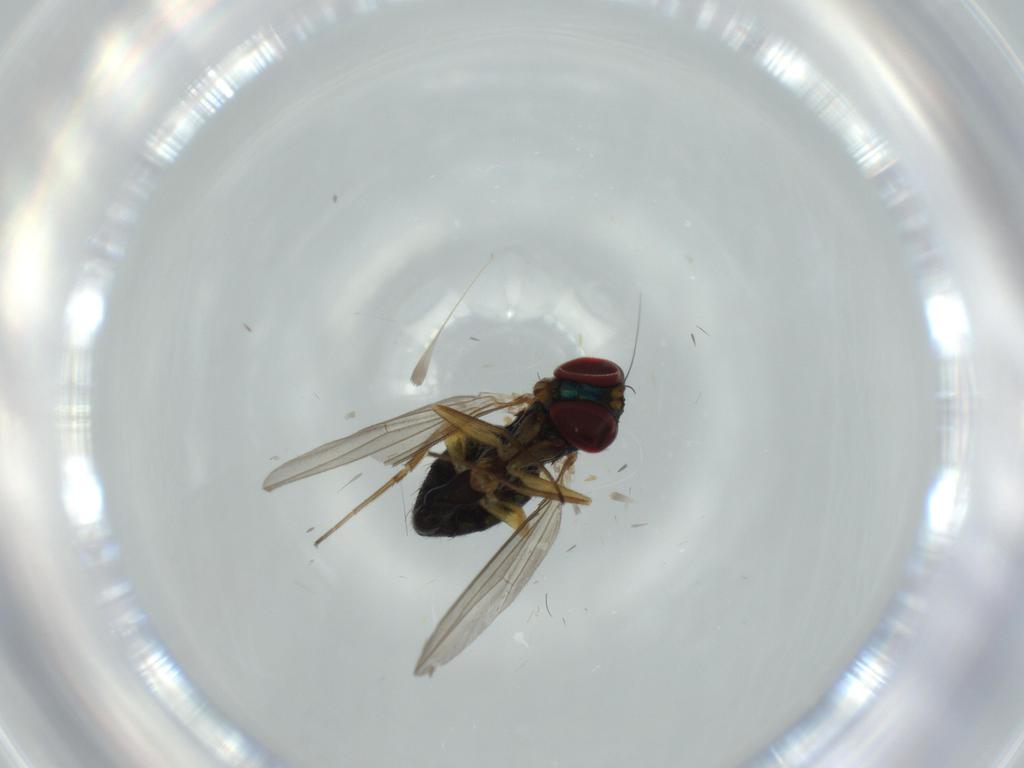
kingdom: Animalia
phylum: Arthropoda
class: Insecta
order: Diptera
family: Dolichopodidae
